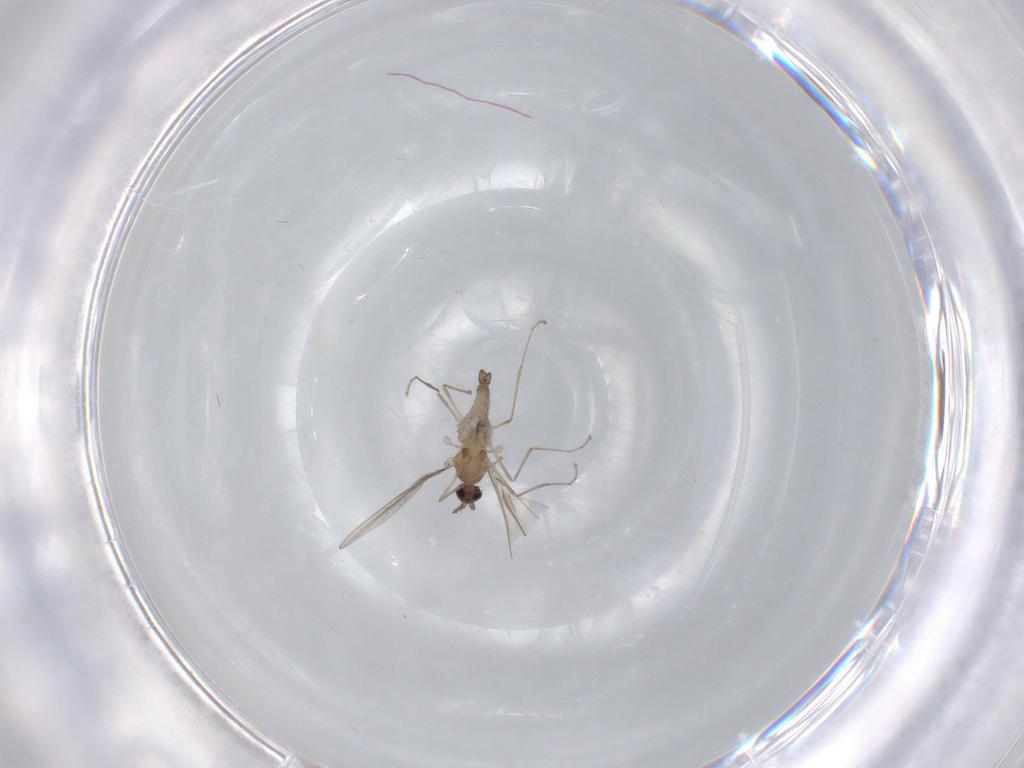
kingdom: Animalia
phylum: Arthropoda
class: Insecta
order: Diptera
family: Cecidomyiidae
